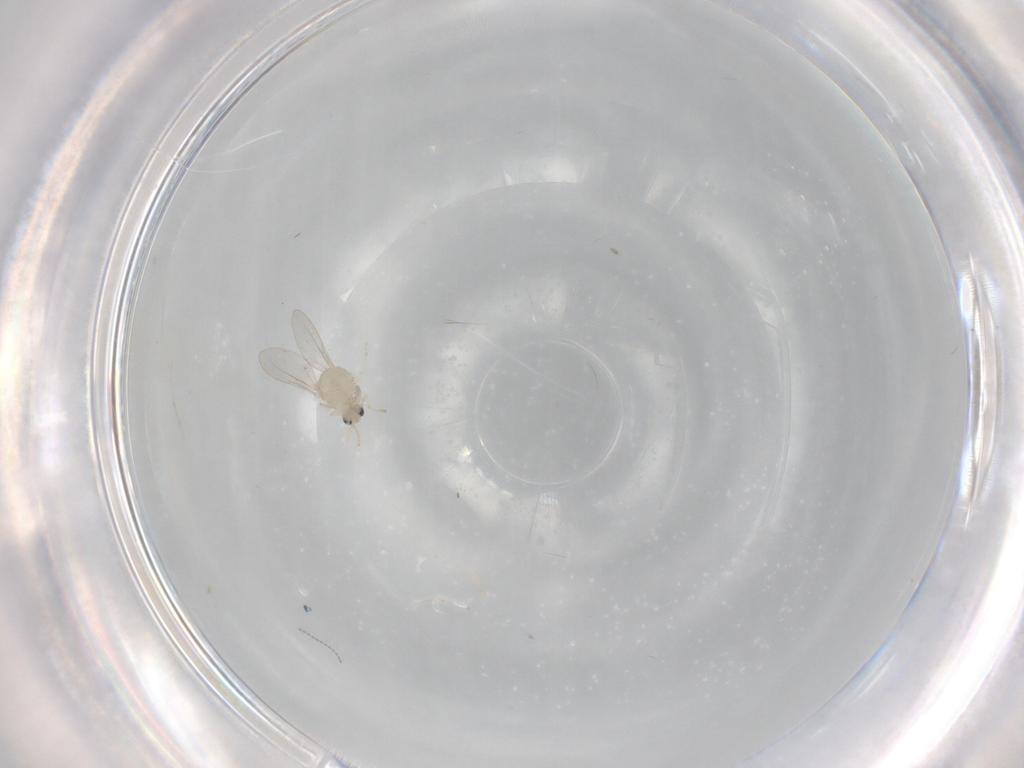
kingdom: Animalia
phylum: Arthropoda
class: Insecta
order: Diptera
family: Cecidomyiidae
